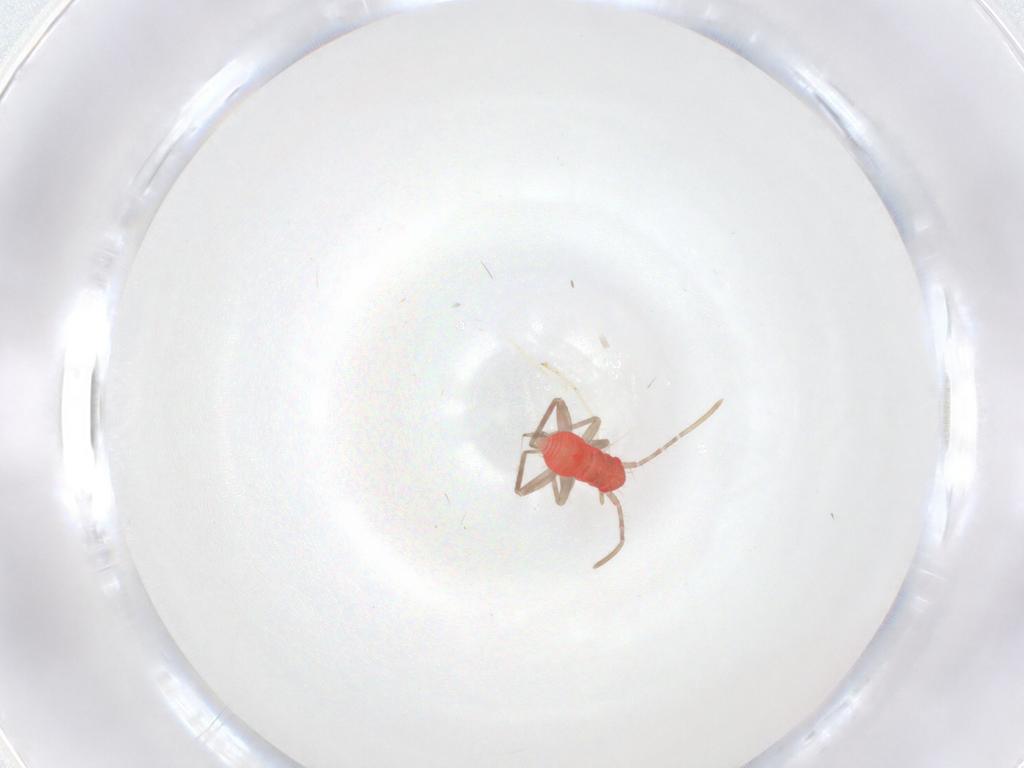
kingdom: Animalia
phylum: Arthropoda
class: Insecta
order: Hemiptera
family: Miridae
